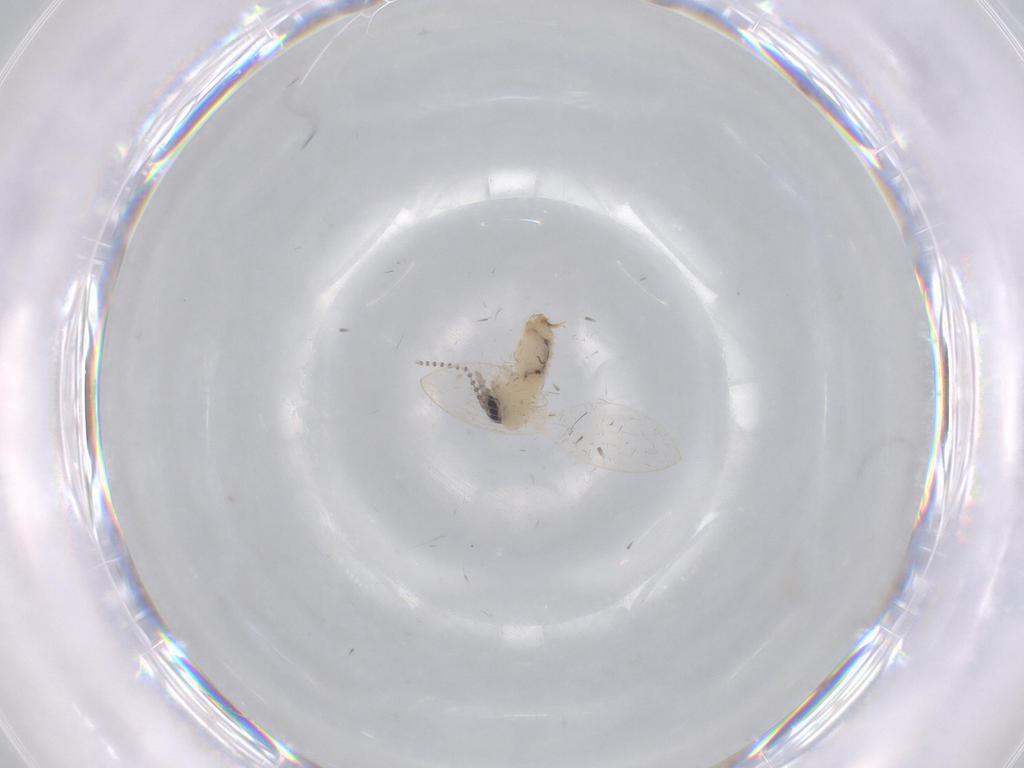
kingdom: Animalia
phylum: Arthropoda
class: Insecta
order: Diptera
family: Psychodidae
